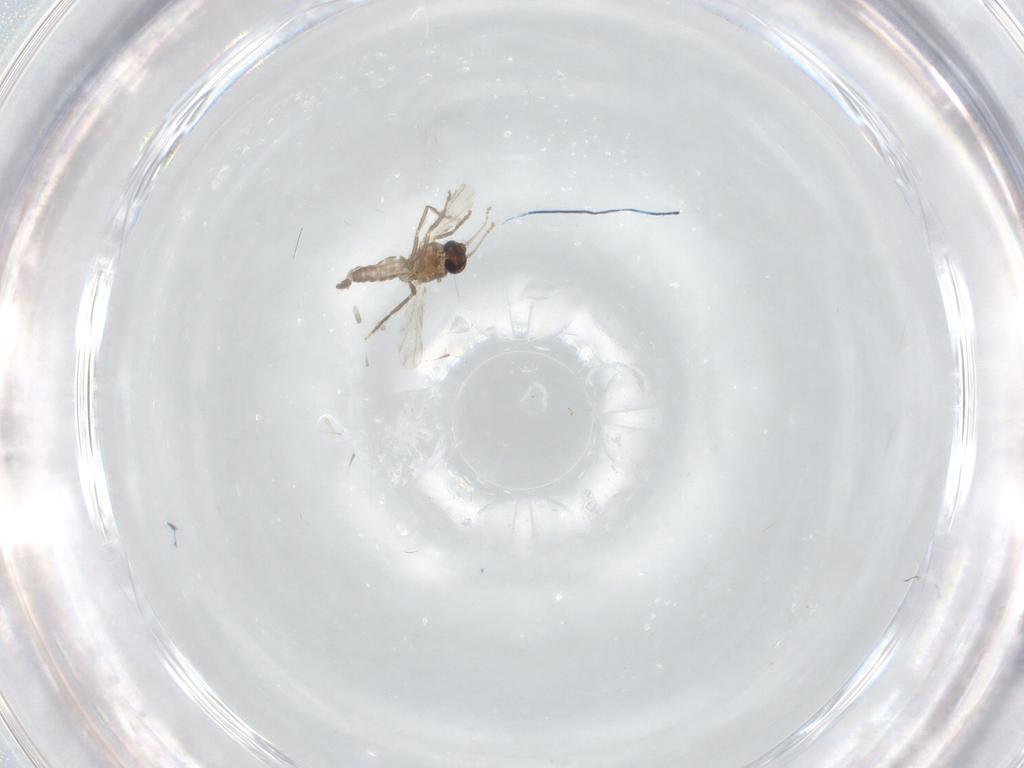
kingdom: Animalia
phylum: Arthropoda
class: Insecta
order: Diptera
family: Ceratopogonidae
